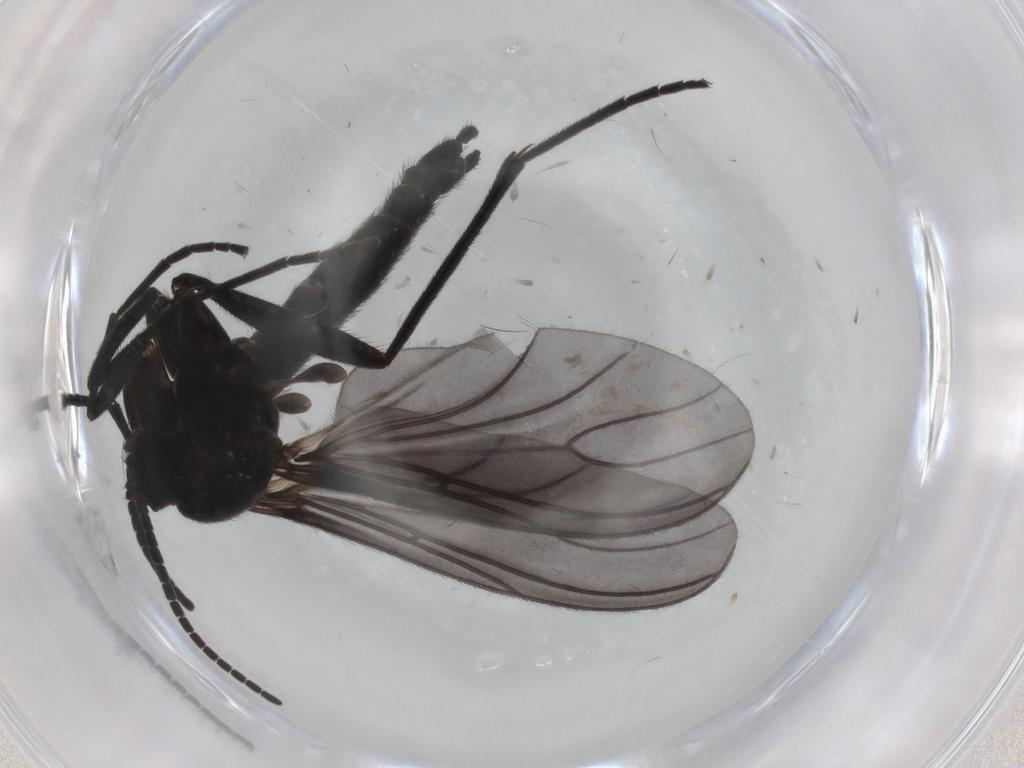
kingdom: Animalia
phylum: Arthropoda
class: Insecta
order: Diptera
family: Sciaridae
